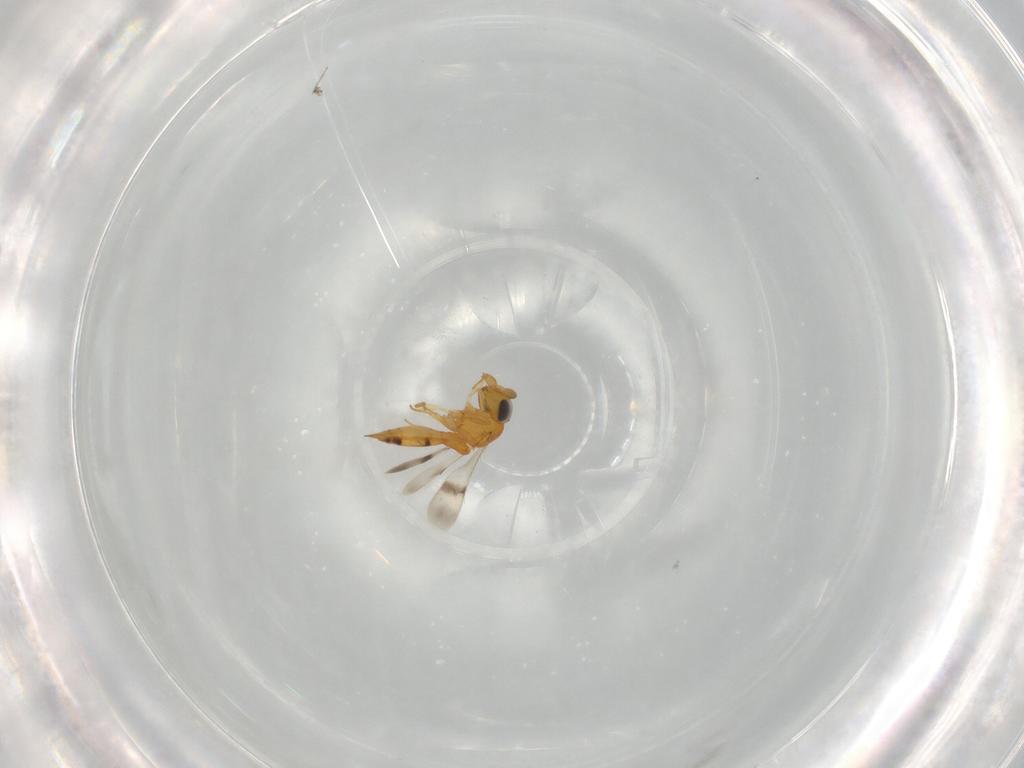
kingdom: Animalia
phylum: Arthropoda
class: Insecta
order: Hymenoptera
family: Scelionidae
